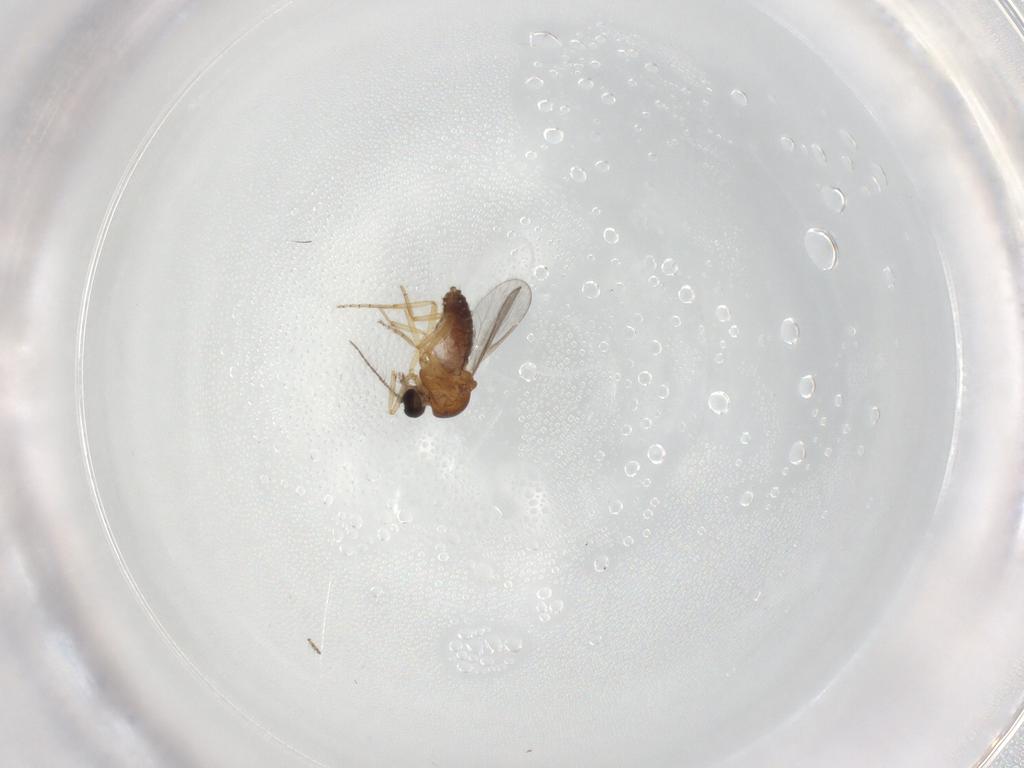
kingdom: Animalia
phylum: Arthropoda
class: Insecta
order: Diptera
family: Ceratopogonidae
